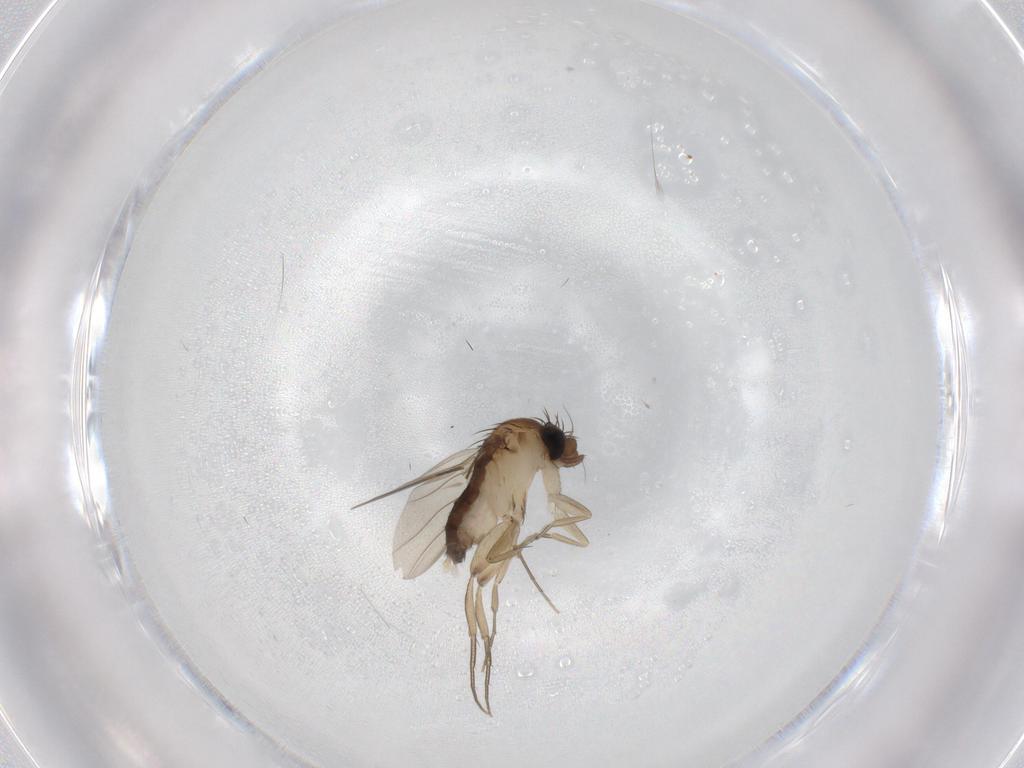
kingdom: Animalia
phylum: Arthropoda
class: Insecta
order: Diptera
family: Phoridae
